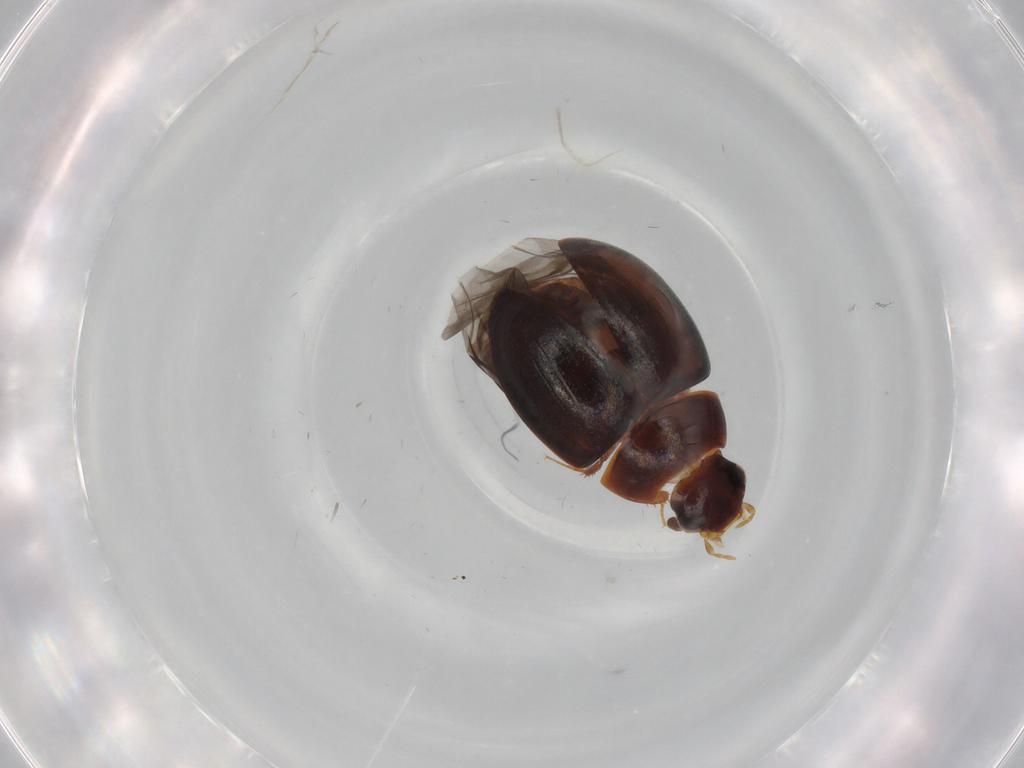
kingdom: Animalia
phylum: Arthropoda
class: Insecta
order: Coleoptera
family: Hydrophilidae
